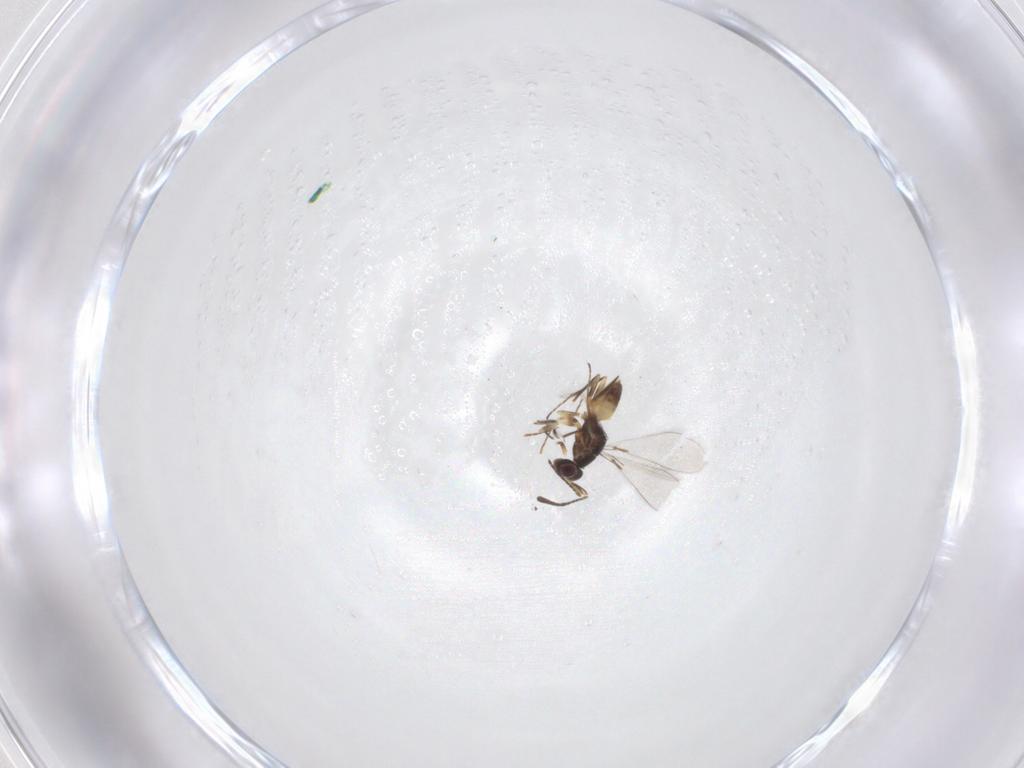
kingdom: Animalia
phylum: Arthropoda
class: Insecta
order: Hymenoptera
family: Mymaridae
